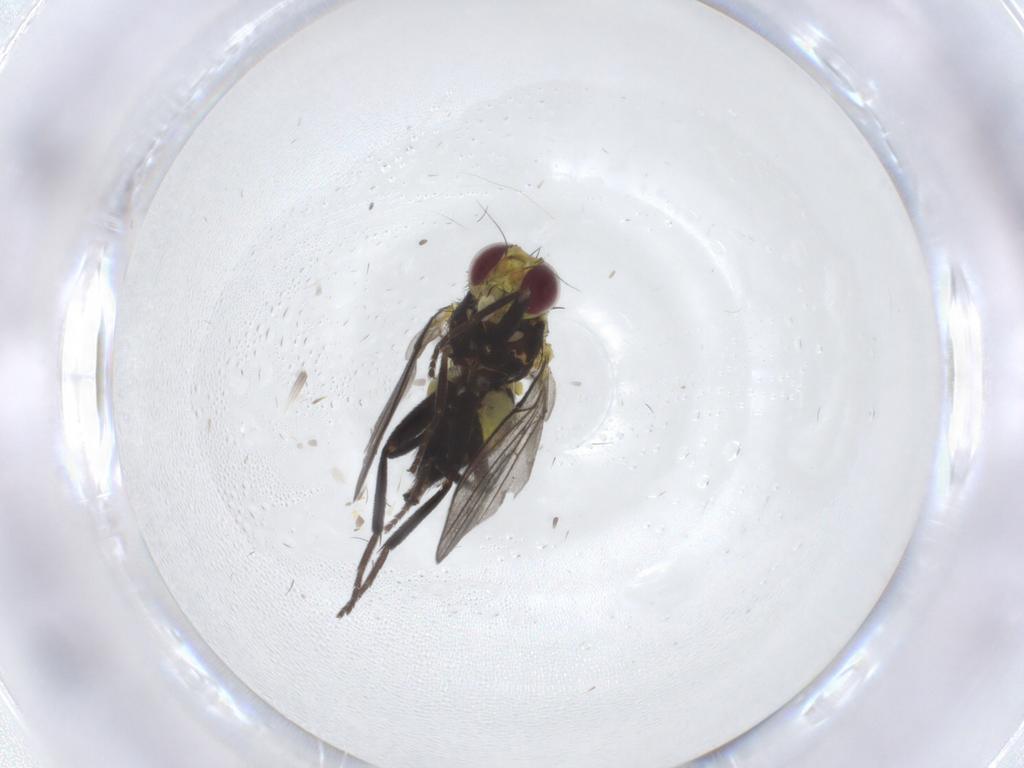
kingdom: Animalia
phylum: Arthropoda
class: Insecta
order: Diptera
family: Agromyzidae
